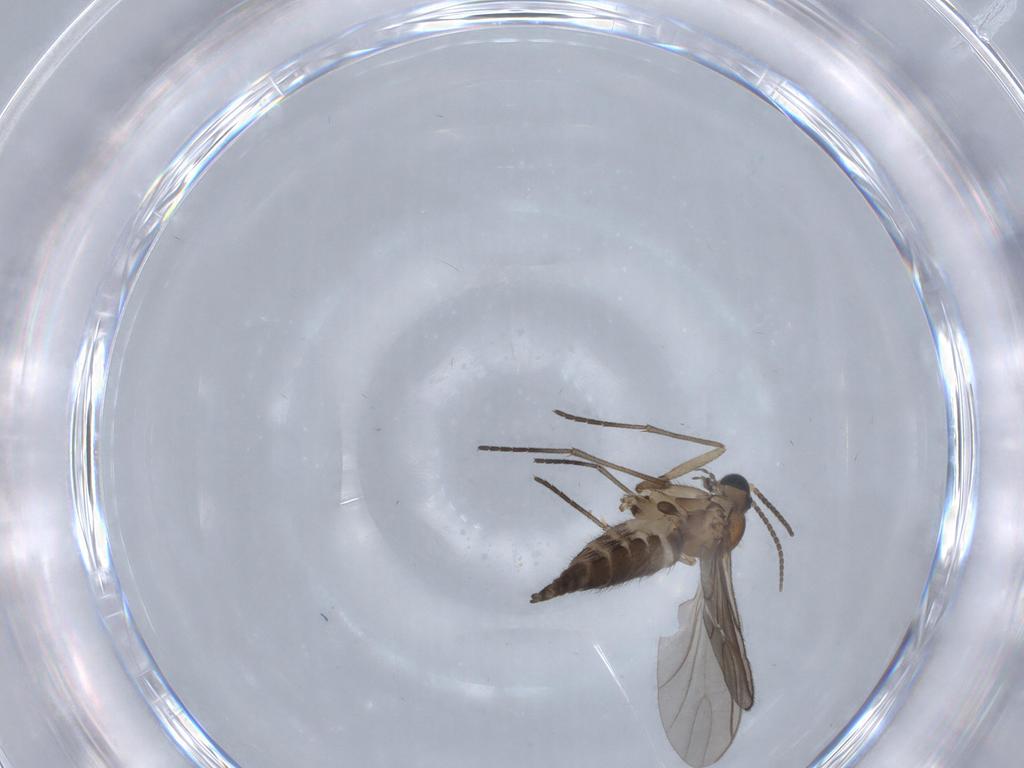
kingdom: Animalia
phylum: Arthropoda
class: Insecta
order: Diptera
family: Sciaridae
